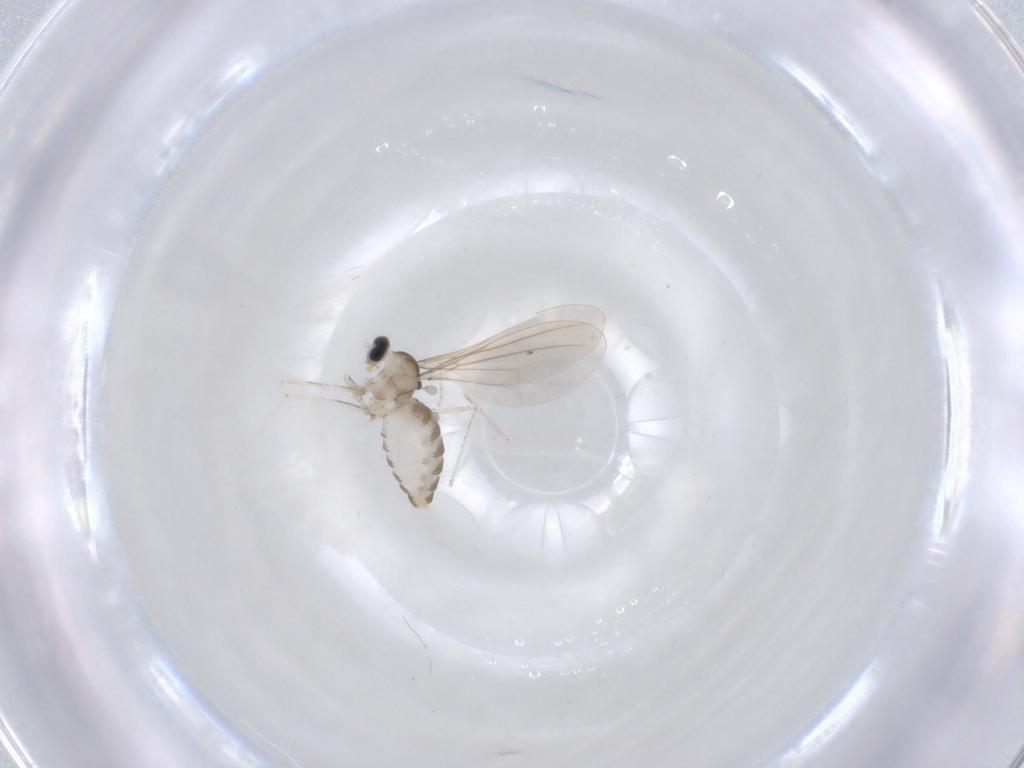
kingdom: Animalia
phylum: Arthropoda
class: Insecta
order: Diptera
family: Cecidomyiidae
